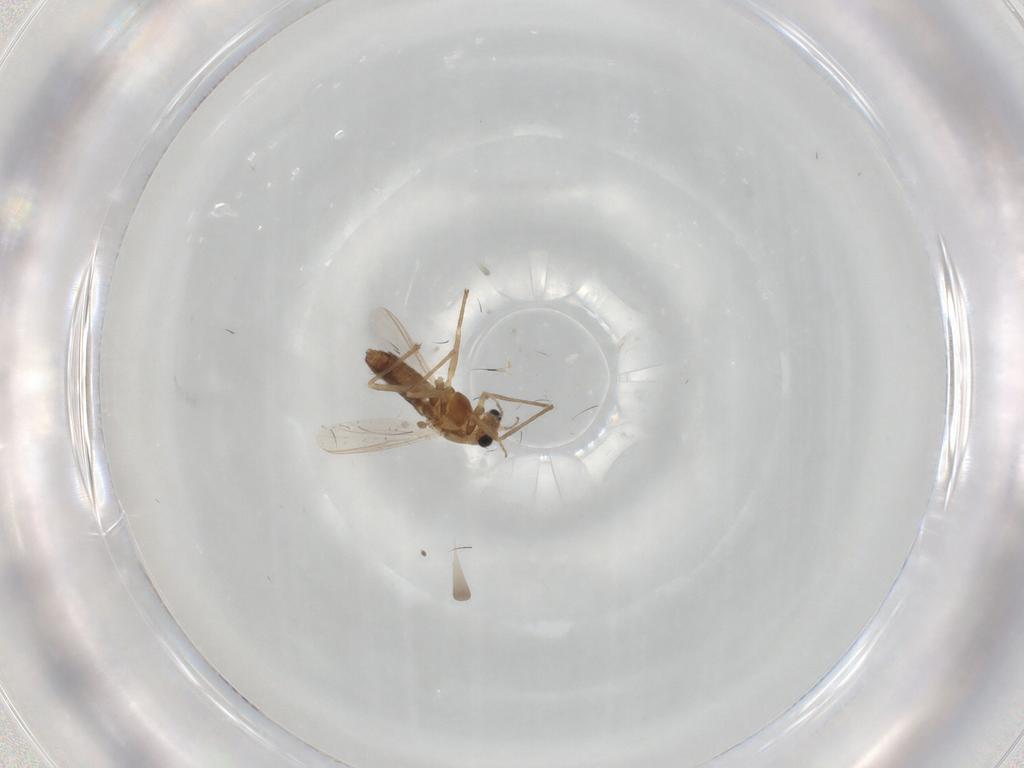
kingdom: Animalia
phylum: Arthropoda
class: Insecta
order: Diptera
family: Chironomidae
